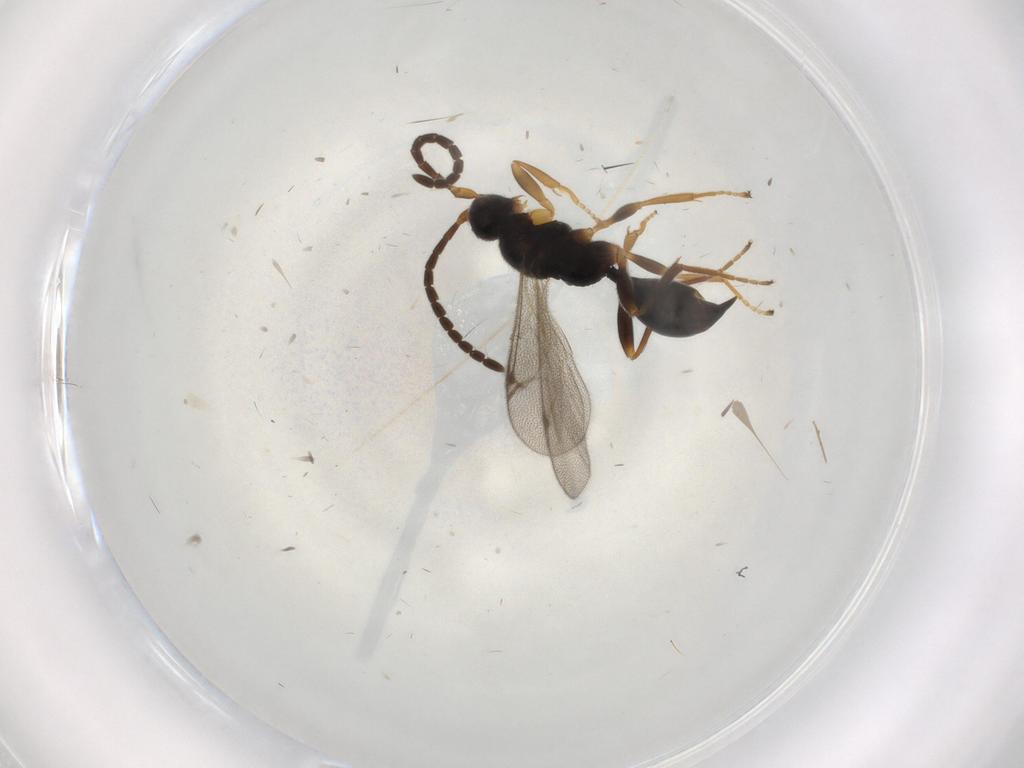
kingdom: Animalia
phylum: Arthropoda
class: Insecta
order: Hymenoptera
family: Proctotrupidae
